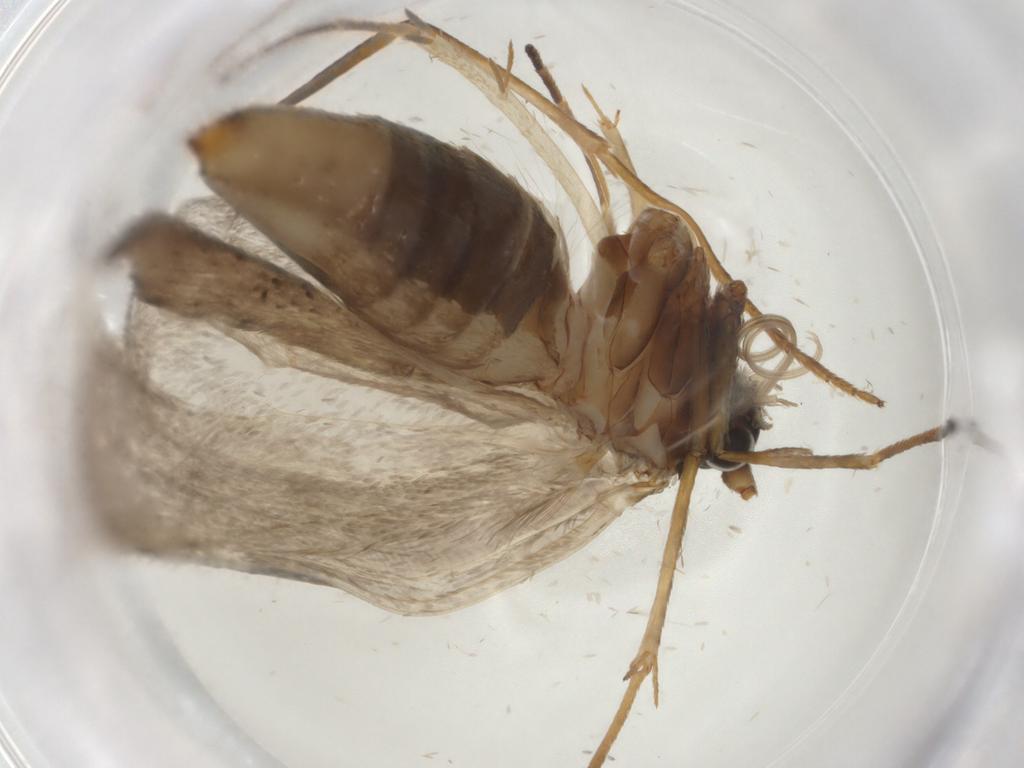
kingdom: Animalia
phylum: Arthropoda
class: Insecta
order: Lepidoptera
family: Adelidae
